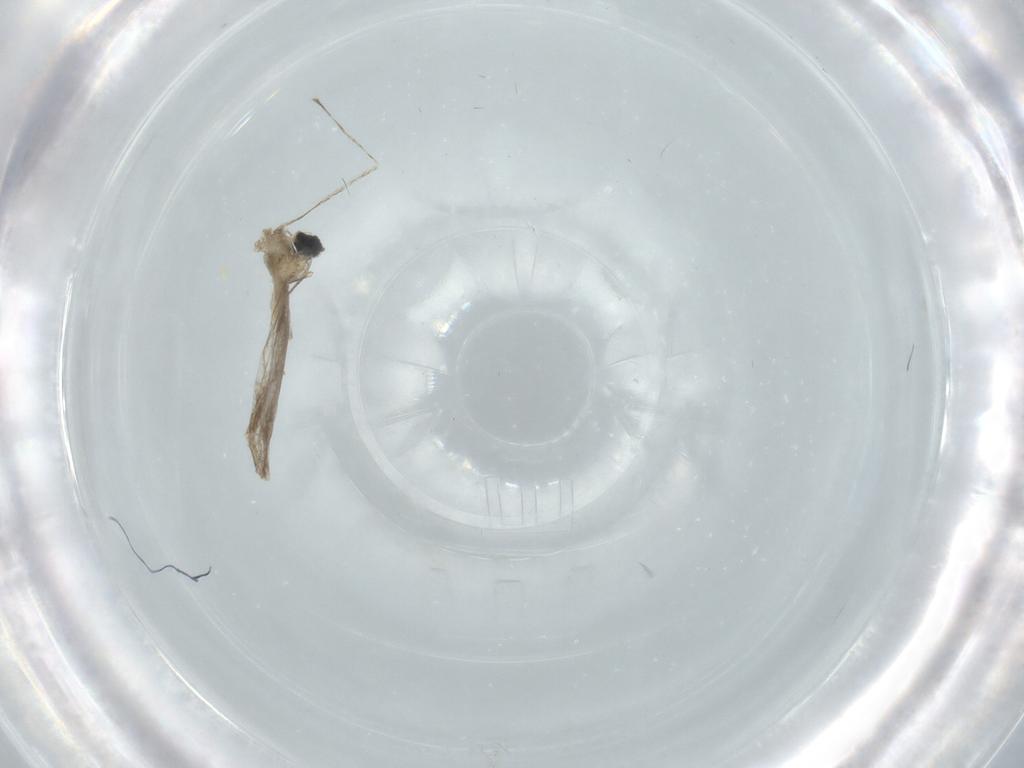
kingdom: Animalia
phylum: Arthropoda
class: Insecta
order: Diptera
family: Cecidomyiidae
